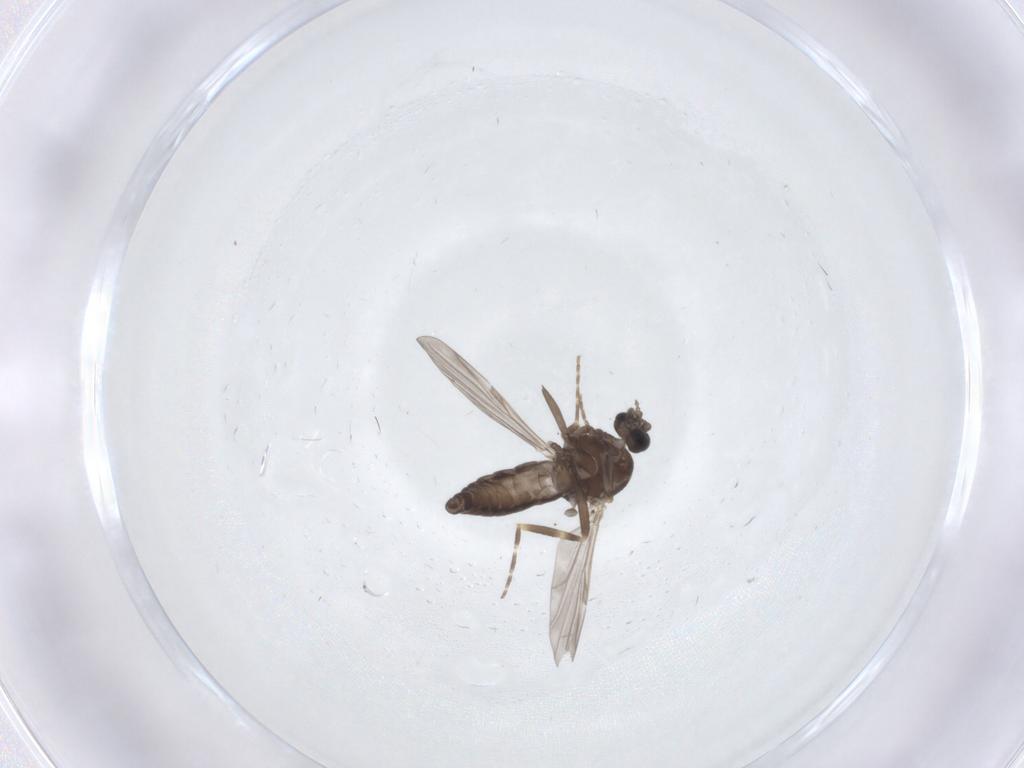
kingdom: Animalia
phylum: Arthropoda
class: Insecta
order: Diptera
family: Ceratopogonidae
